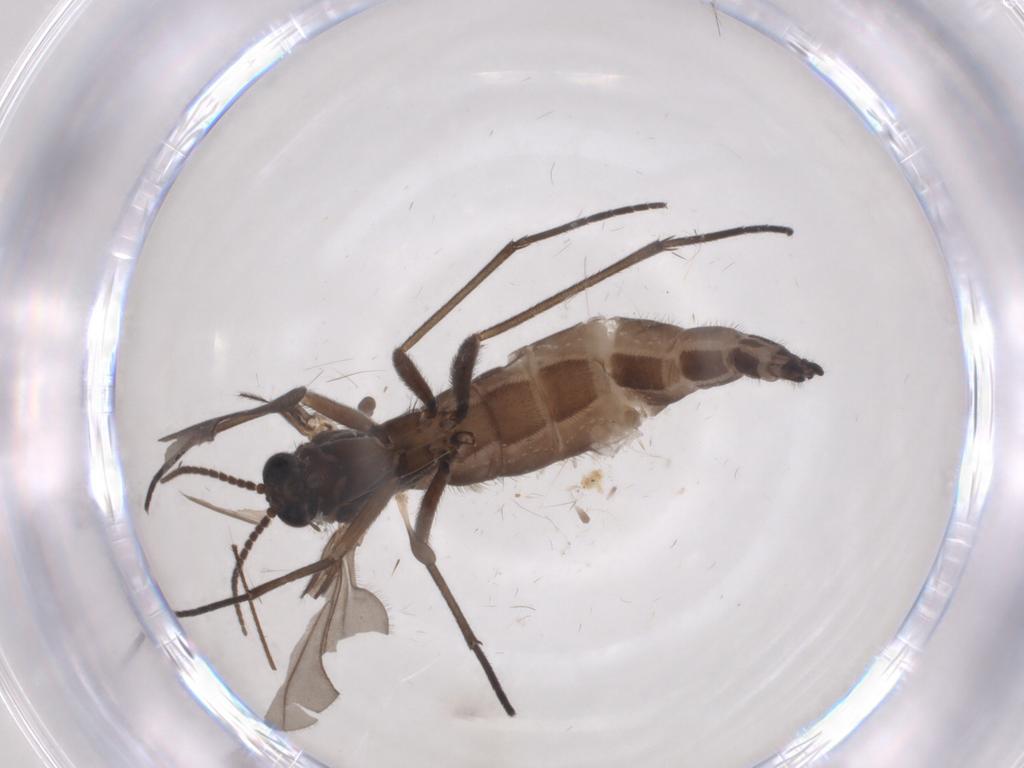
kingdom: Animalia
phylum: Arthropoda
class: Insecta
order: Diptera
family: Sciaridae
